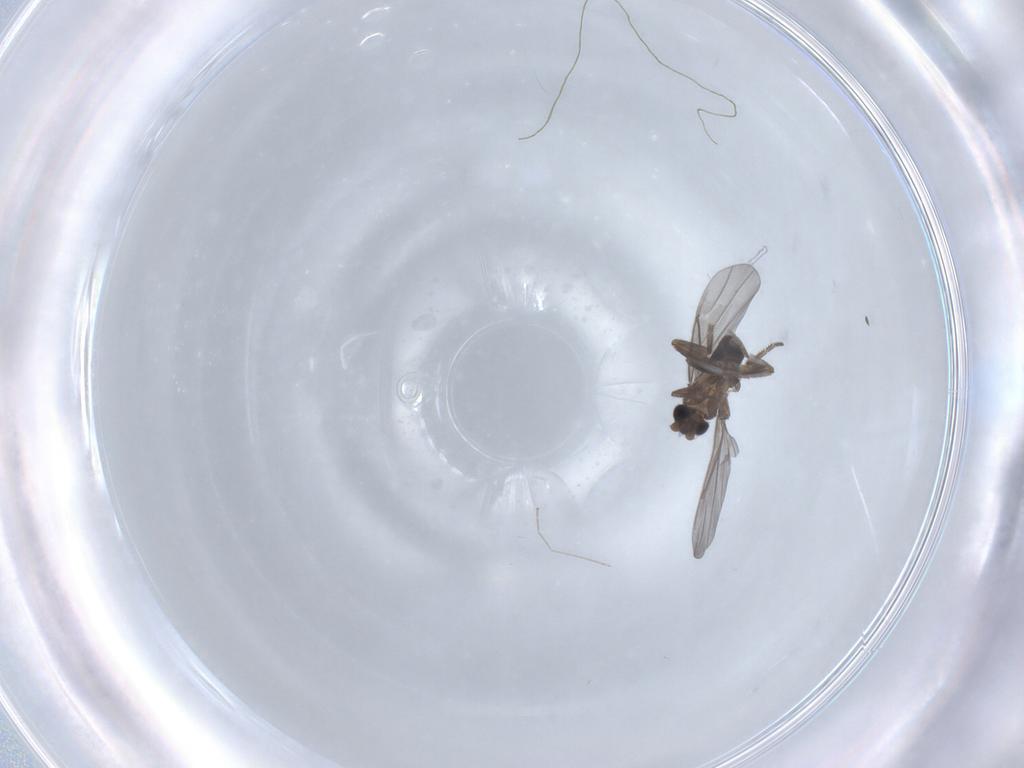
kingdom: Animalia
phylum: Arthropoda
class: Insecta
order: Diptera
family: Phoridae
